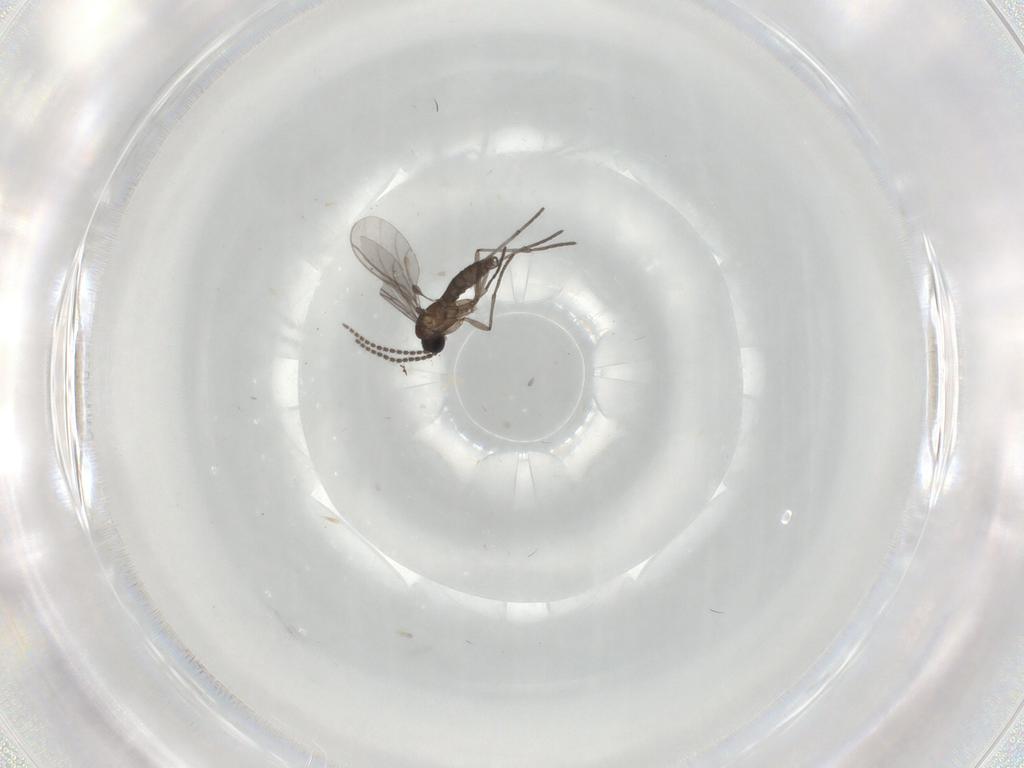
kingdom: Animalia
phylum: Arthropoda
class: Insecta
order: Diptera
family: Sciaridae
